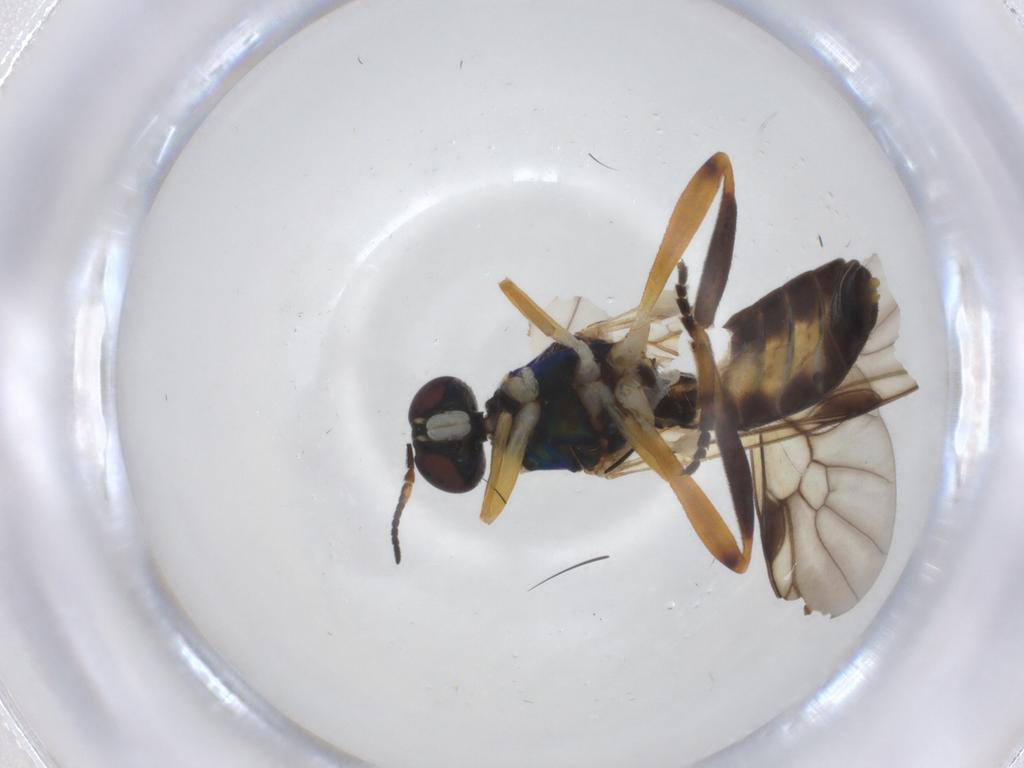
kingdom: Animalia
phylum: Arthropoda
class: Insecta
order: Diptera
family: Stratiomyidae
